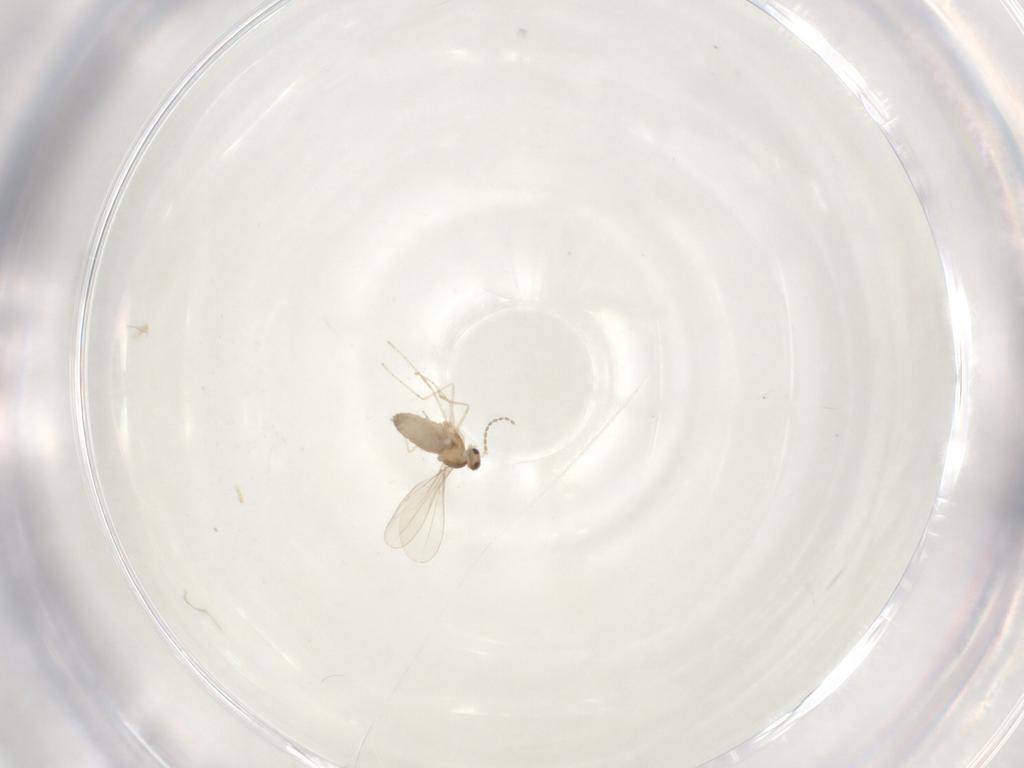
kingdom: Animalia
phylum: Arthropoda
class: Insecta
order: Diptera
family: Cecidomyiidae
